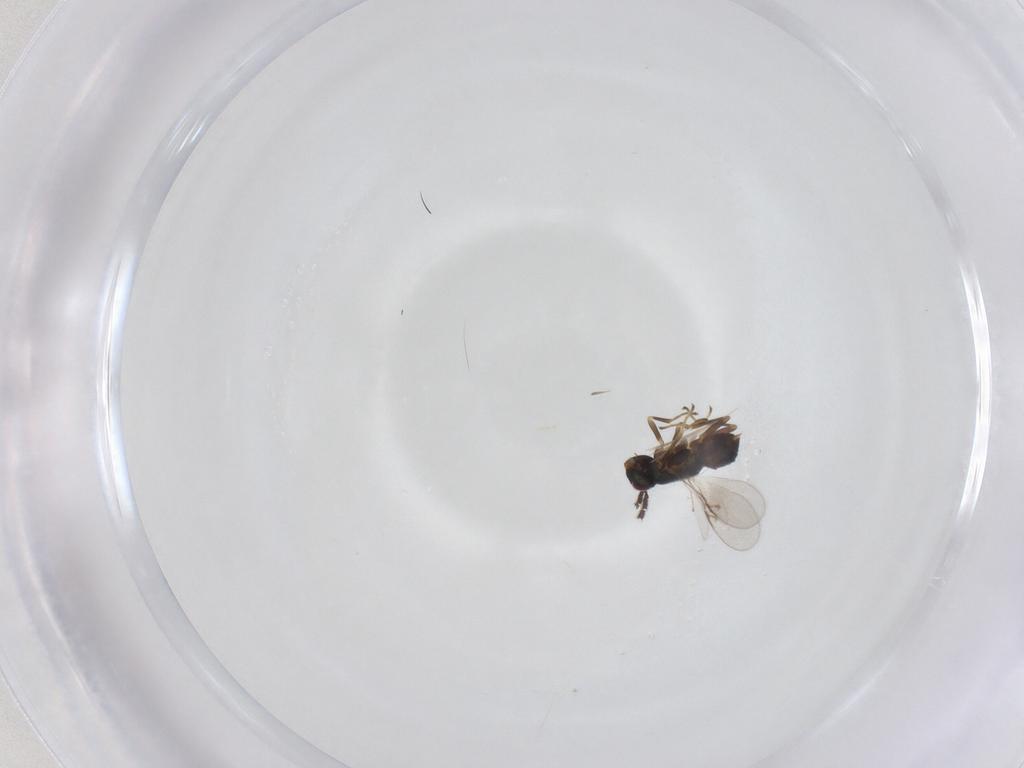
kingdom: Animalia
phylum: Arthropoda
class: Insecta
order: Hymenoptera
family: Encyrtidae
